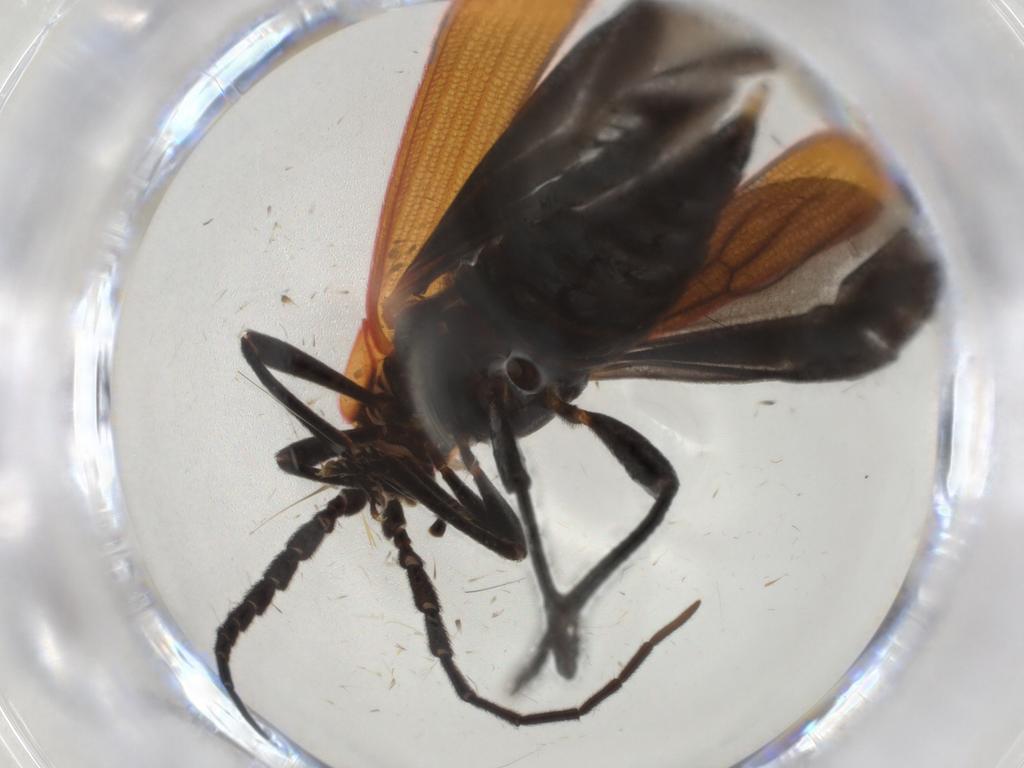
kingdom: Animalia
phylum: Arthropoda
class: Insecta
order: Coleoptera
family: Lycidae
